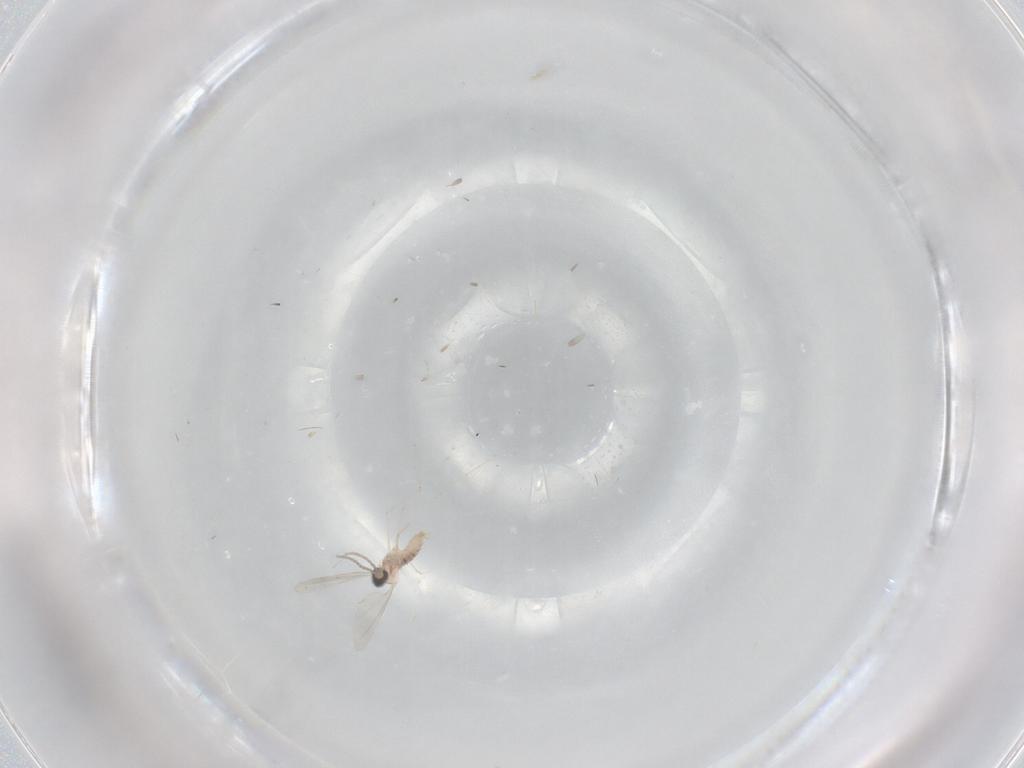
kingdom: Animalia
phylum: Arthropoda
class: Insecta
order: Diptera
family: Cecidomyiidae
